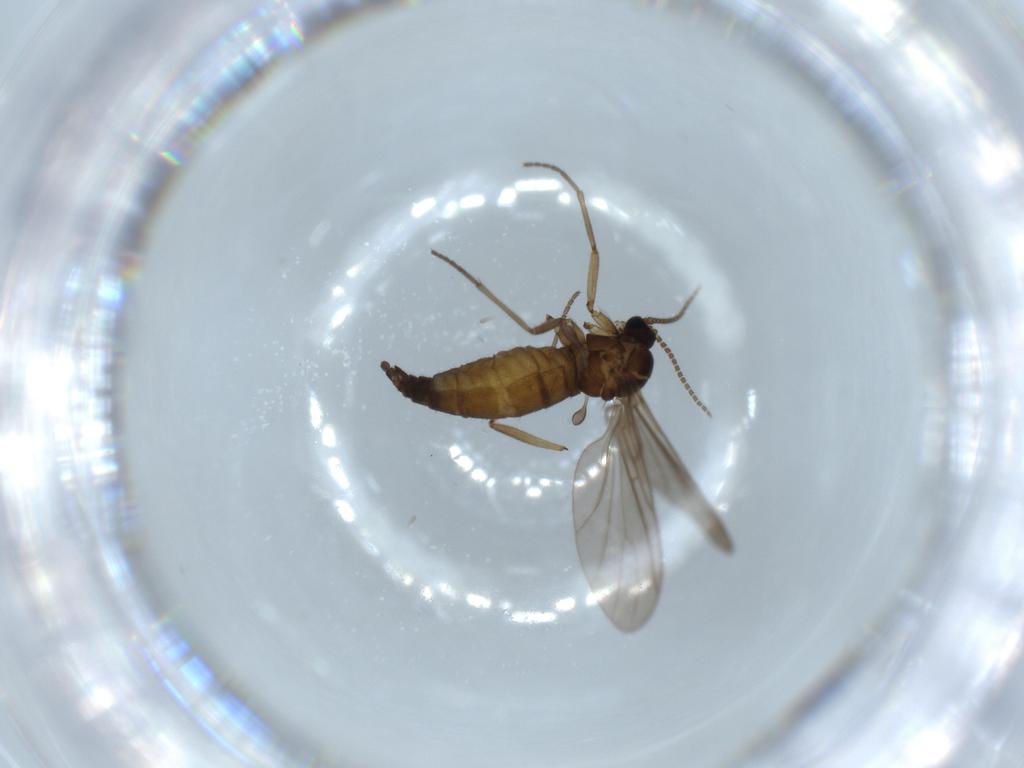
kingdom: Animalia
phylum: Arthropoda
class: Insecta
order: Diptera
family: Sciaridae
